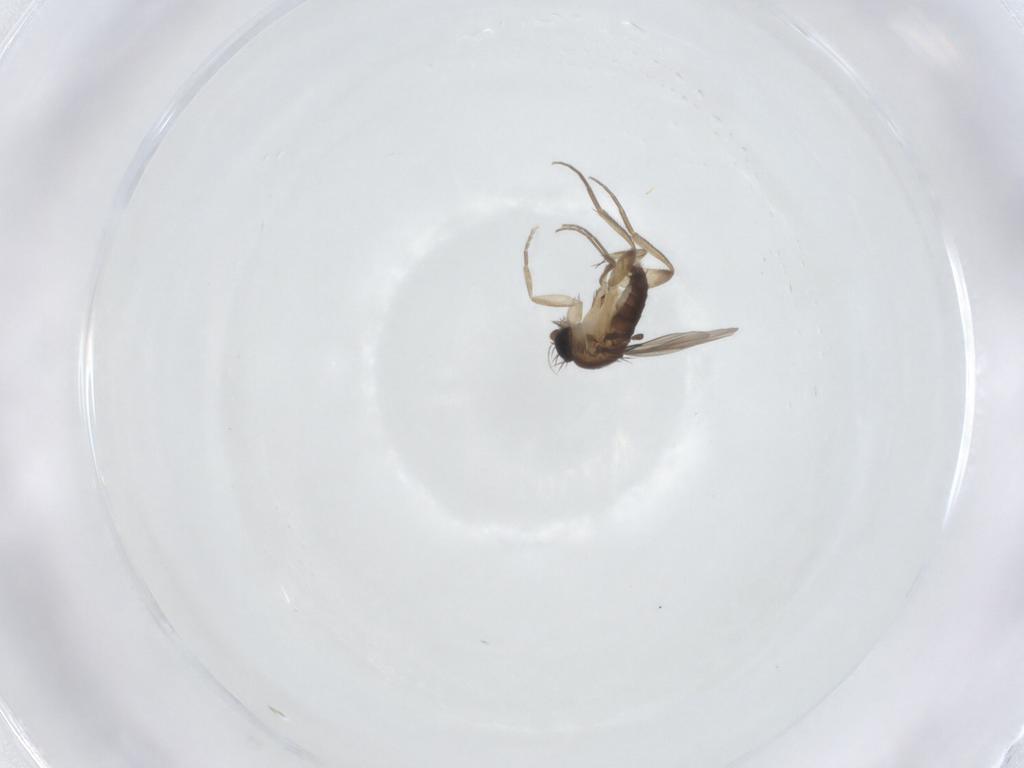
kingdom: Animalia
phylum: Arthropoda
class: Insecta
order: Diptera
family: Phoridae
